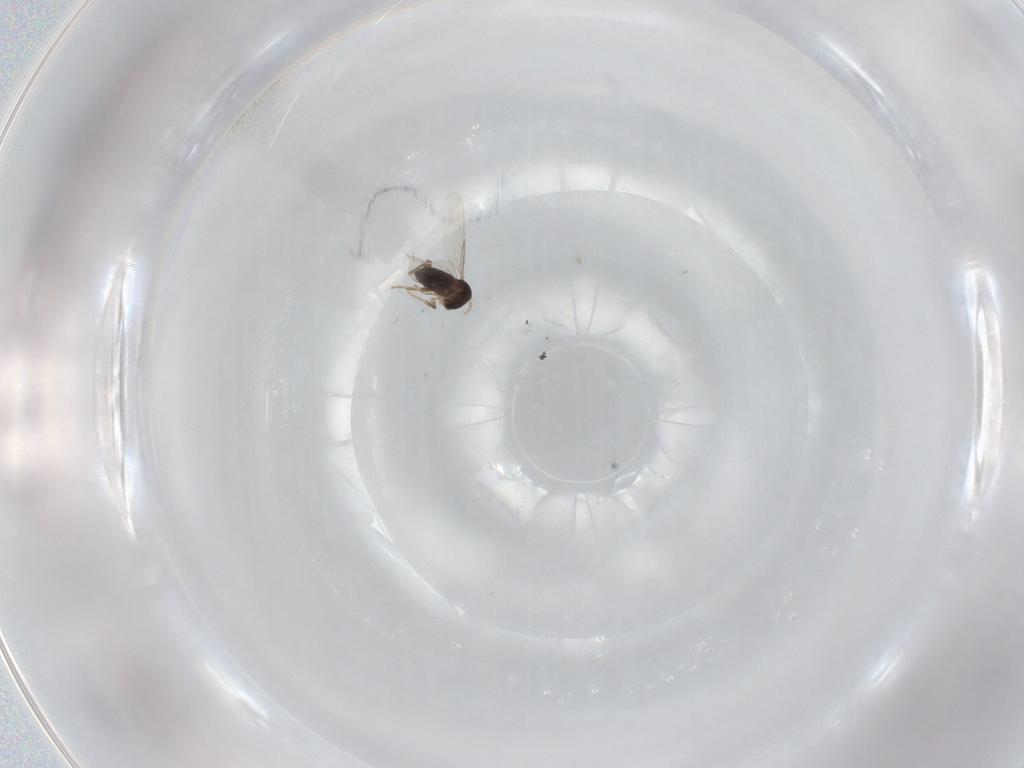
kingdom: Animalia
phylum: Arthropoda
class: Insecta
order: Diptera
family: Phoridae
